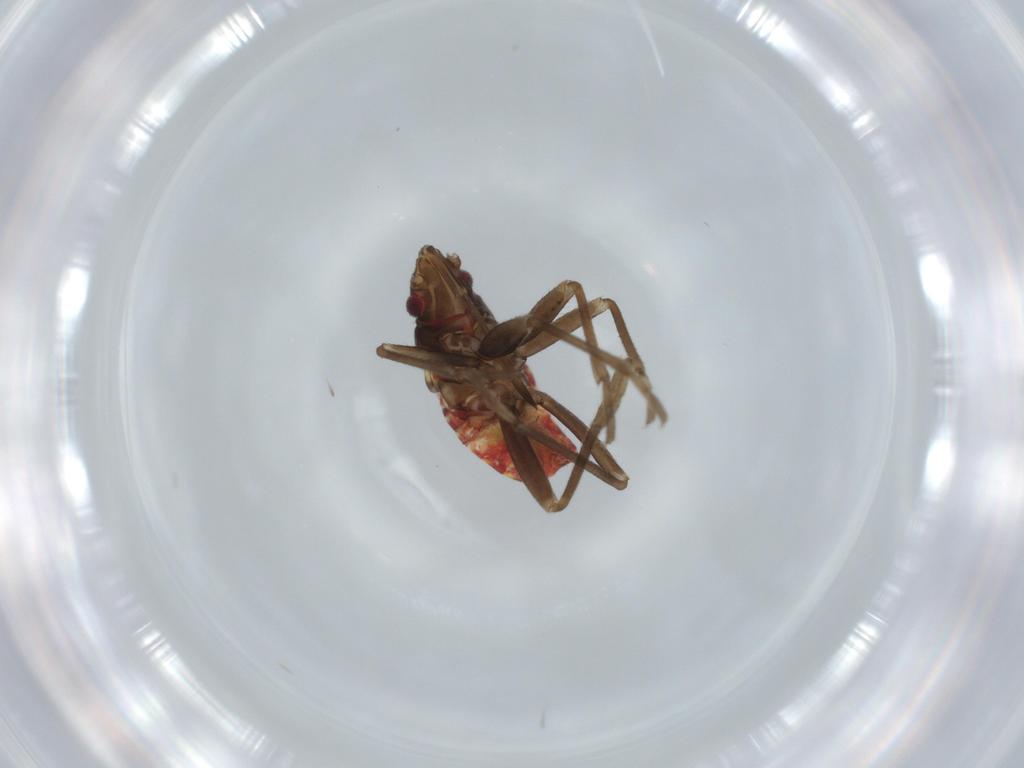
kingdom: Animalia
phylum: Arthropoda
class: Insecta
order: Hemiptera
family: Rhyparochromidae
